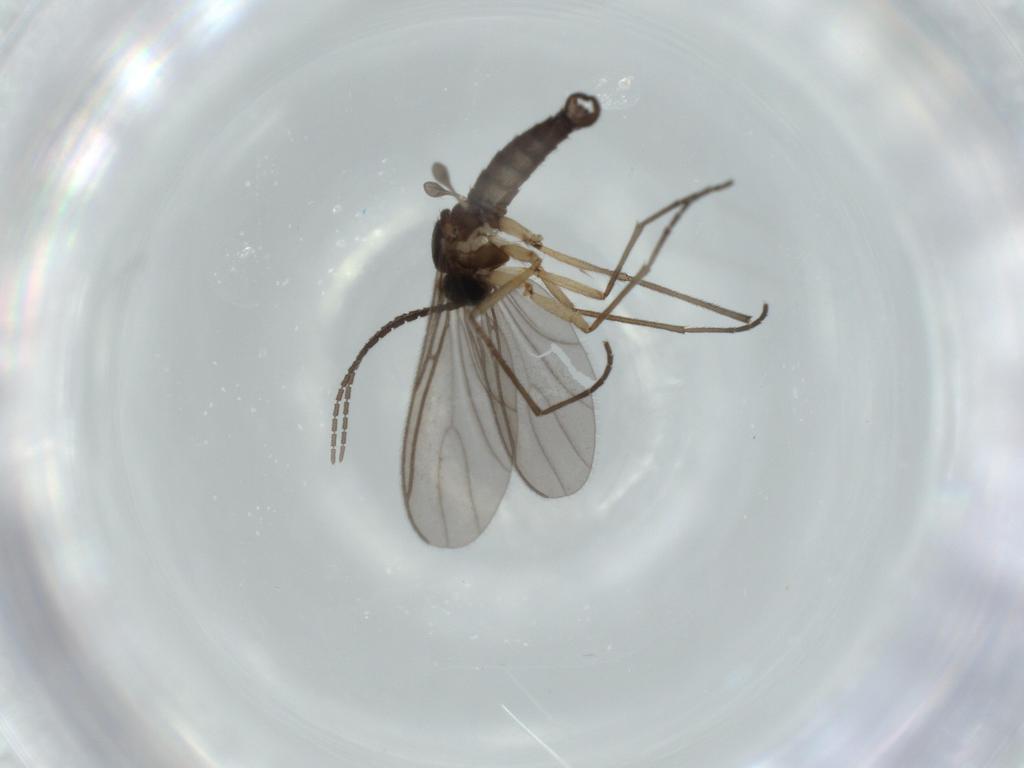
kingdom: Animalia
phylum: Arthropoda
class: Insecta
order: Diptera
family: Sciaridae
